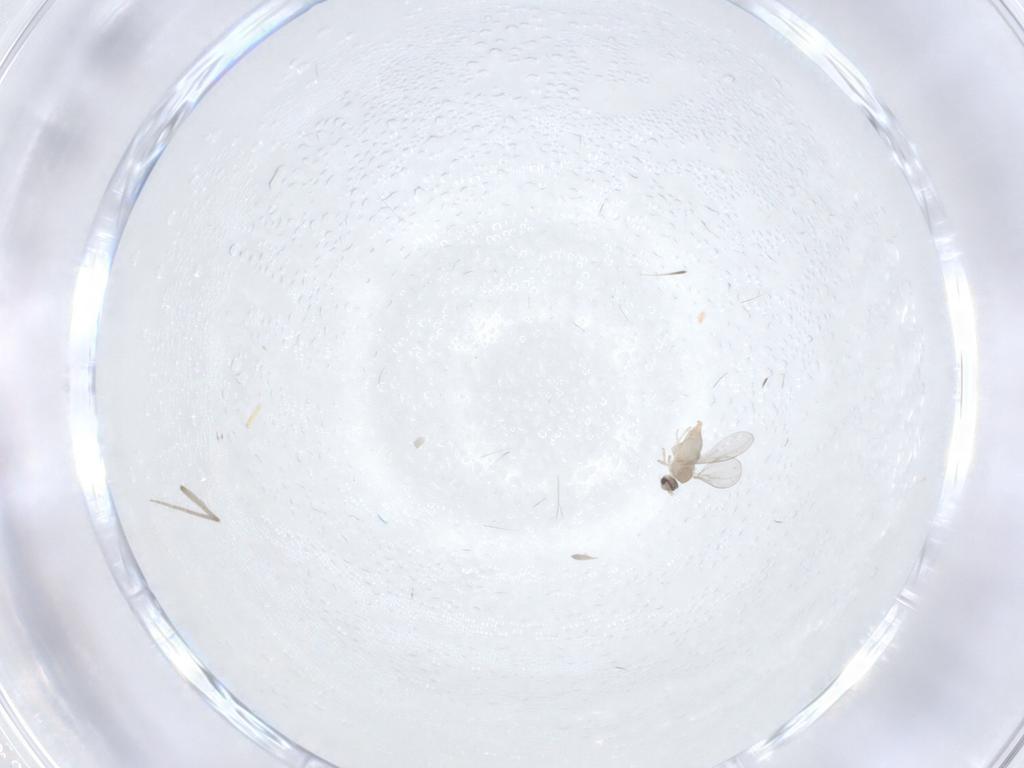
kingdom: Animalia
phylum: Arthropoda
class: Insecta
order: Diptera
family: Cecidomyiidae
